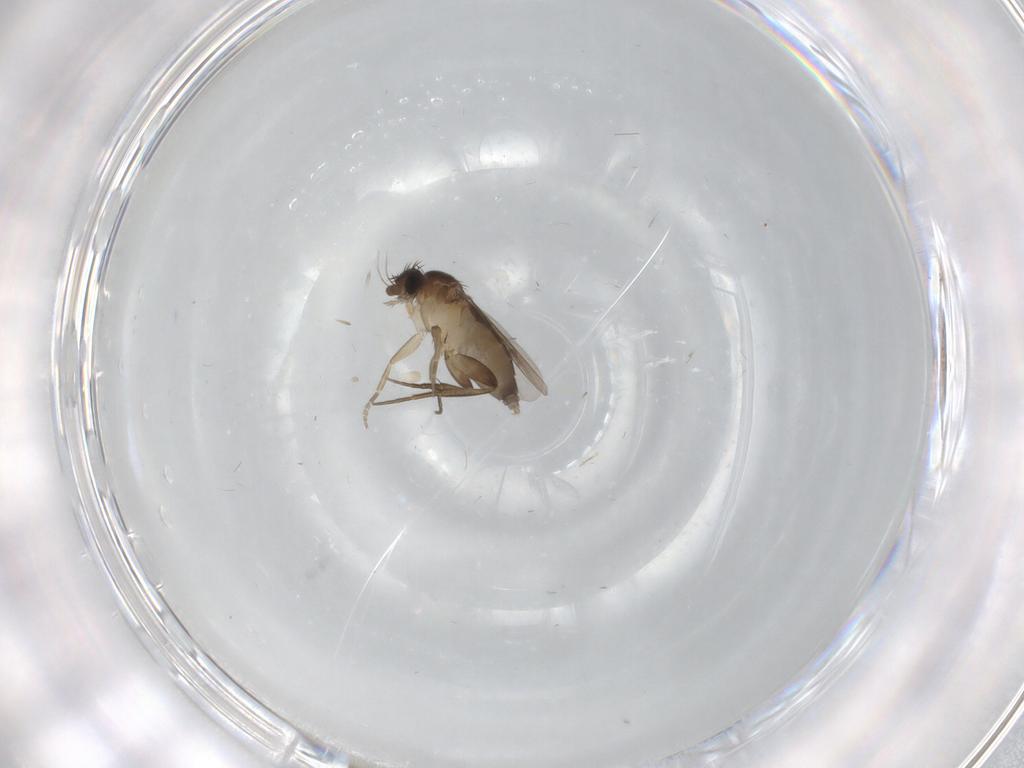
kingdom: Animalia
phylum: Arthropoda
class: Insecta
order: Diptera
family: Phoridae
